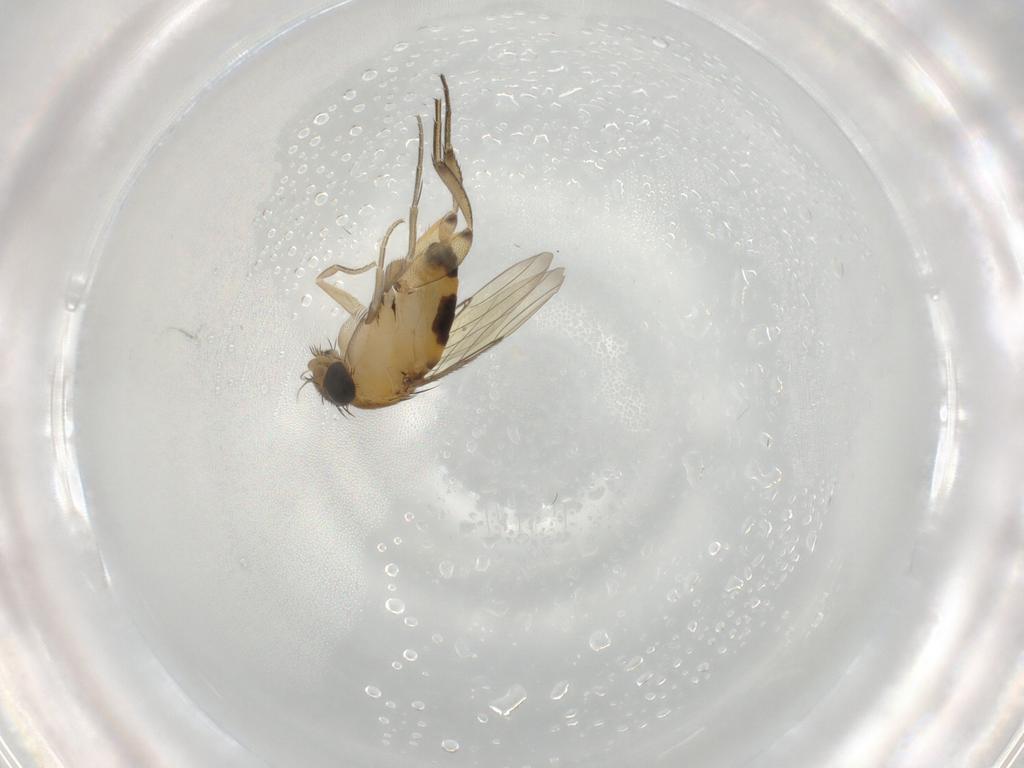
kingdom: Animalia
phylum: Arthropoda
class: Insecta
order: Diptera
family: Phoridae
